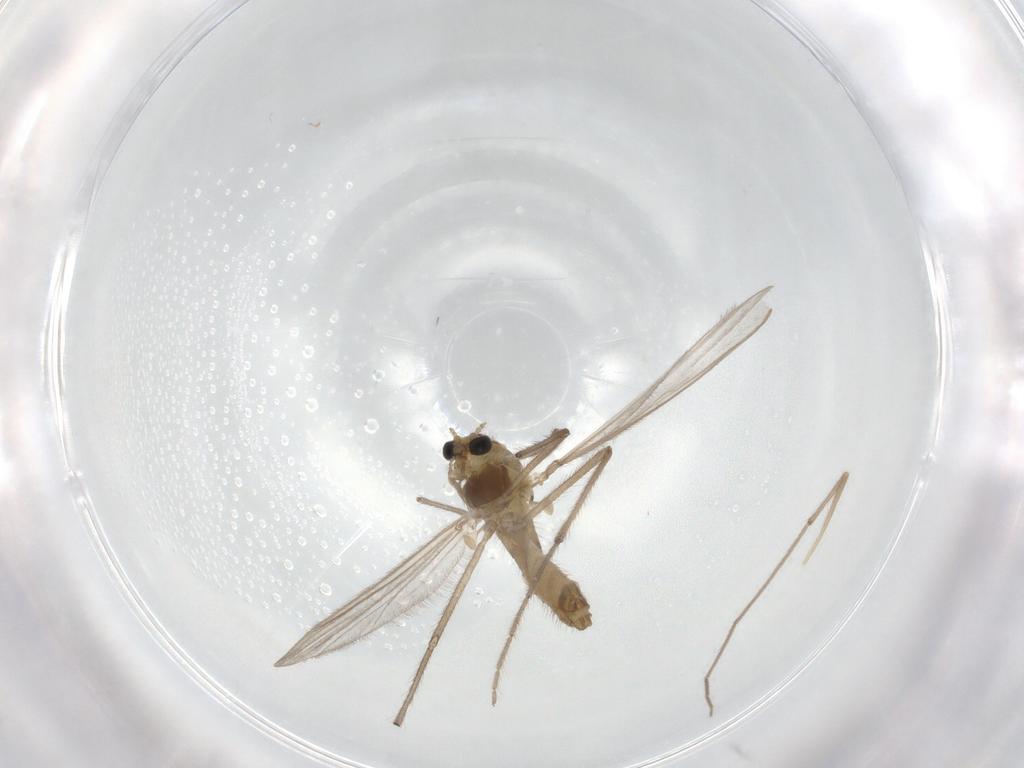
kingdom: Animalia
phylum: Arthropoda
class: Insecta
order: Diptera
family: Chironomidae
